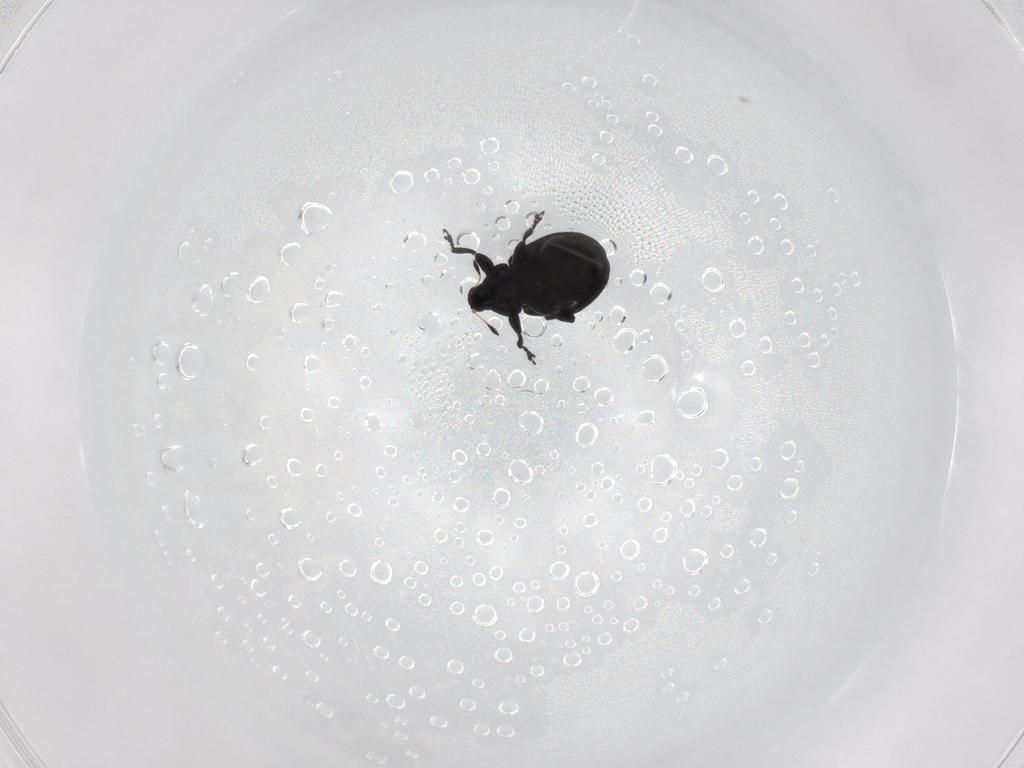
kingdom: Animalia
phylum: Arthropoda
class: Insecta
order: Coleoptera
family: Curculionidae
